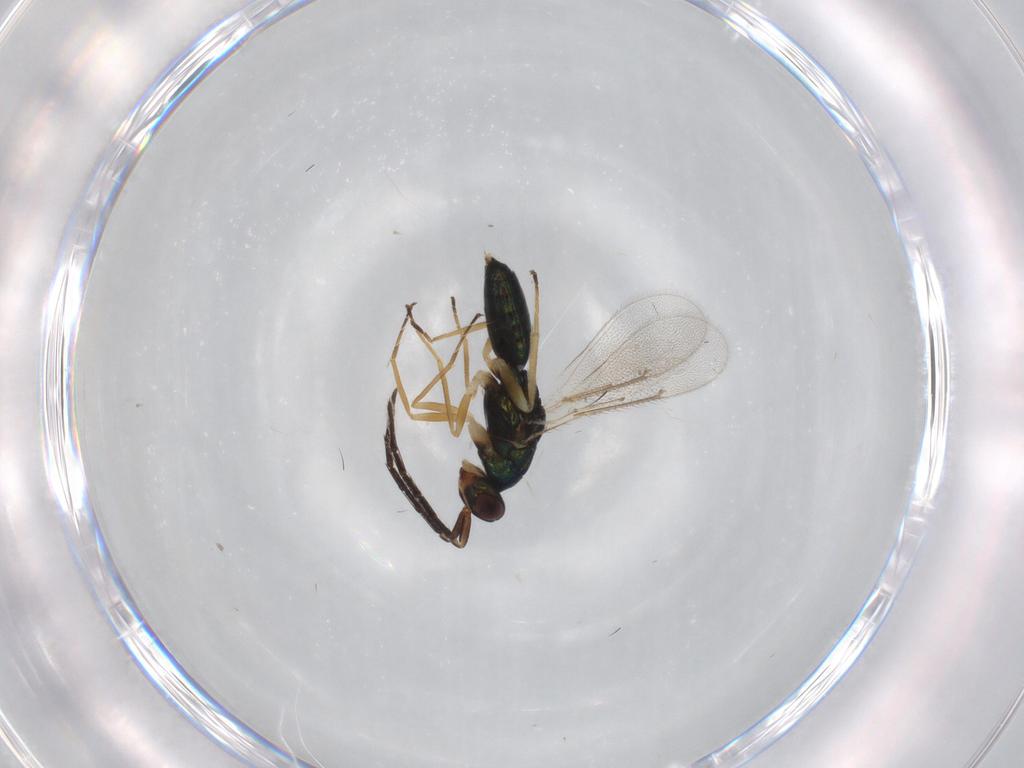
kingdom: Animalia
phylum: Arthropoda
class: Insecta
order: Hymenoptera
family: Eulophidae
